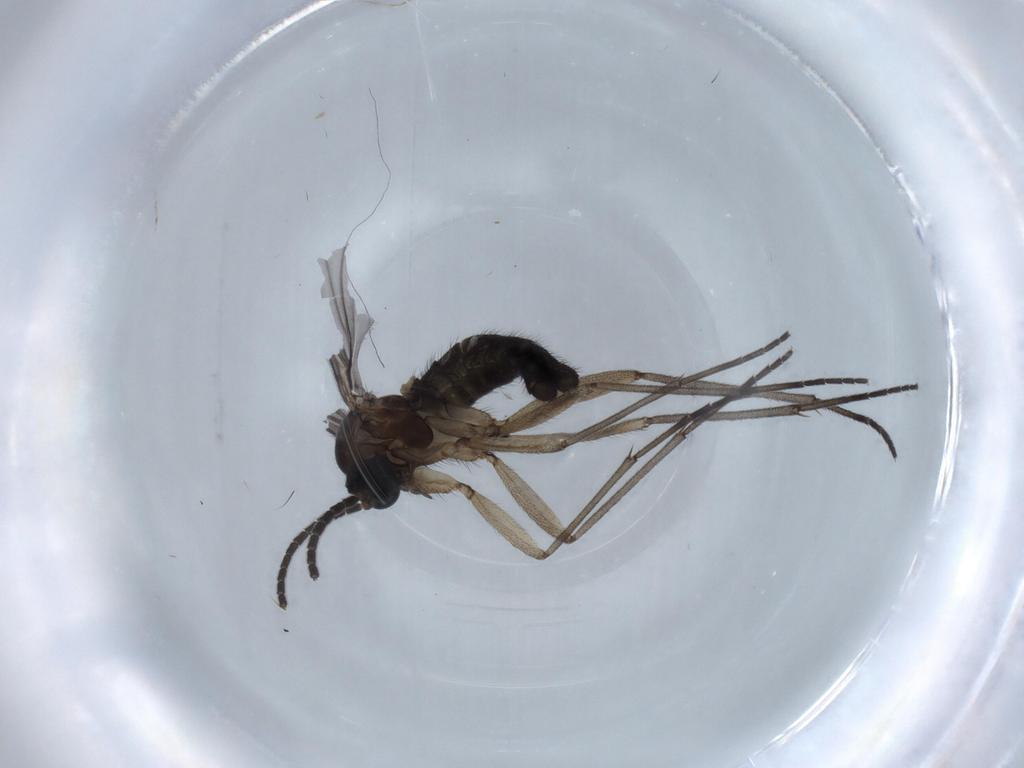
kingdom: Animalia
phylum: Arthropoda
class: Insecta
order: Diptera
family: Sciaridae
